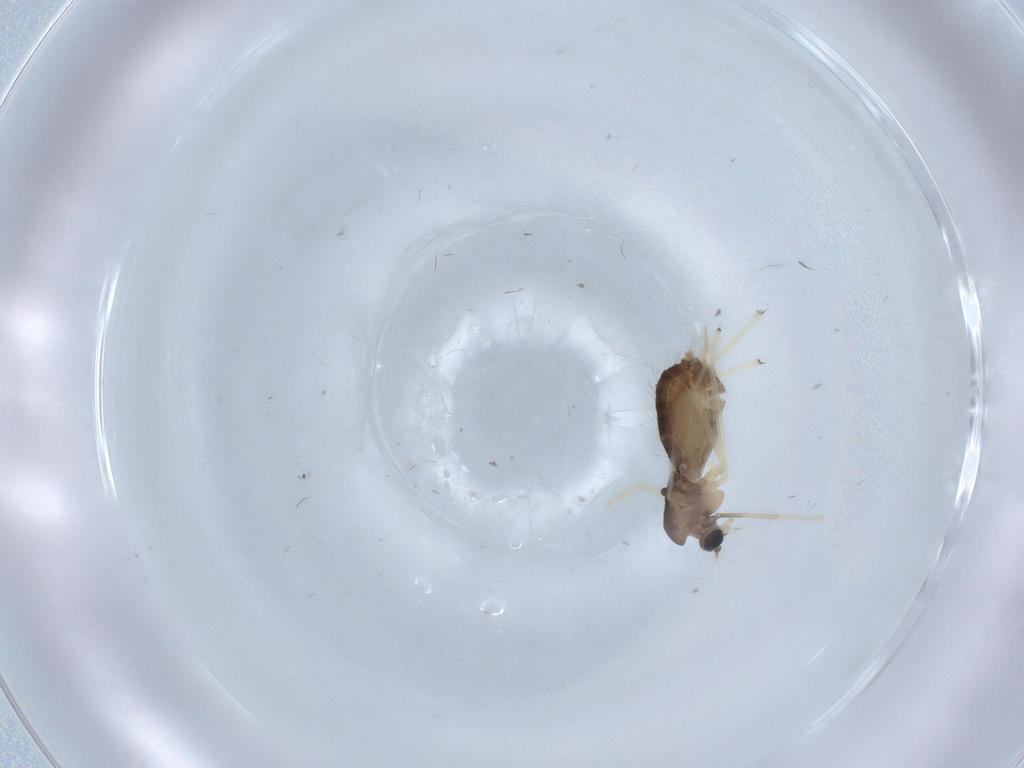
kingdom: Animalia
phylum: Arthropoda
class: Insecta
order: Diptera
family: Chironomidae
